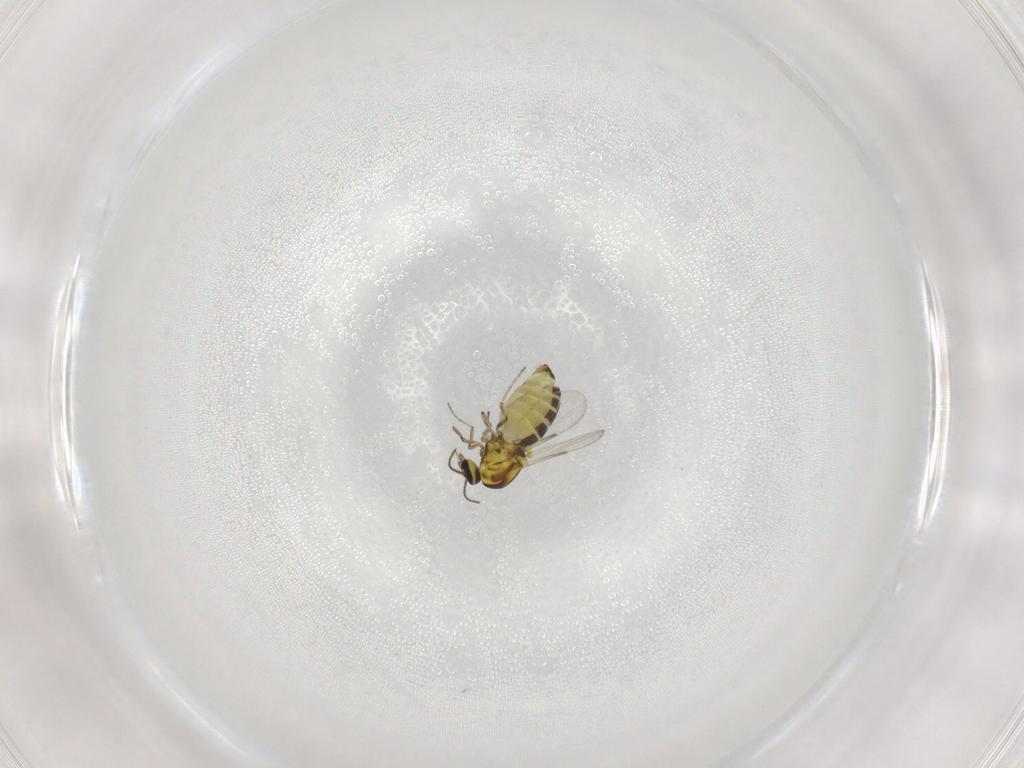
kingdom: Animalia
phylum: Arthropoda
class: Insecta
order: Diptera
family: Ceratopogonidae
